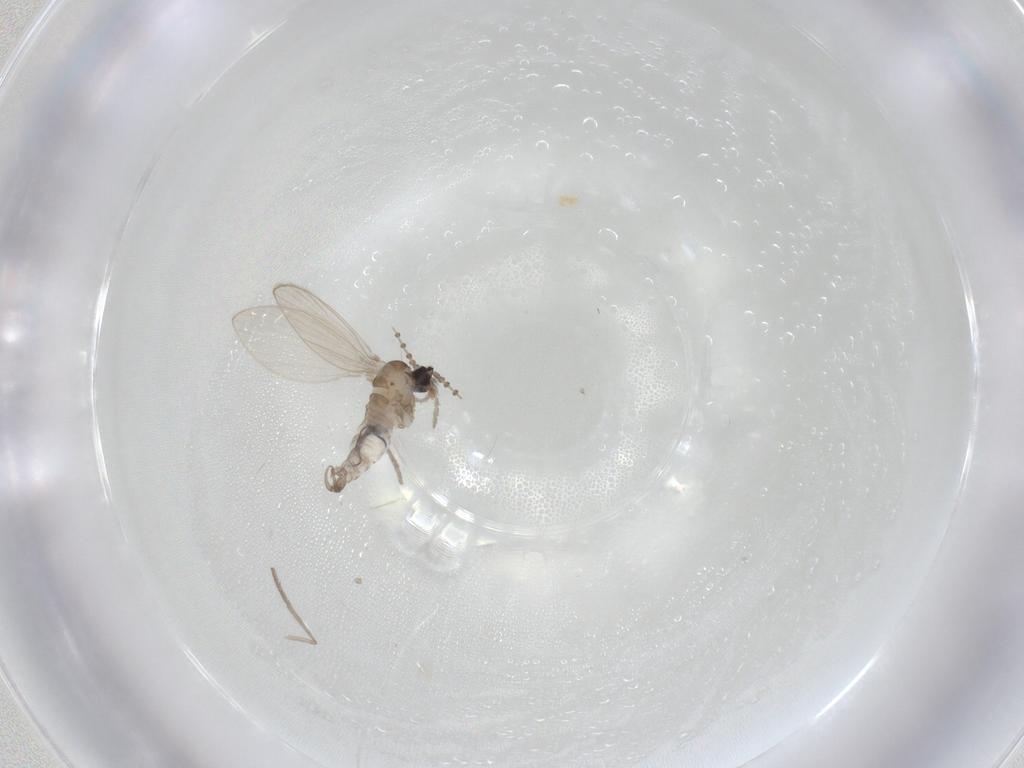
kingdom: Animalia
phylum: Arthropoda
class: Insecta
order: Diptera
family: Psychodidae
